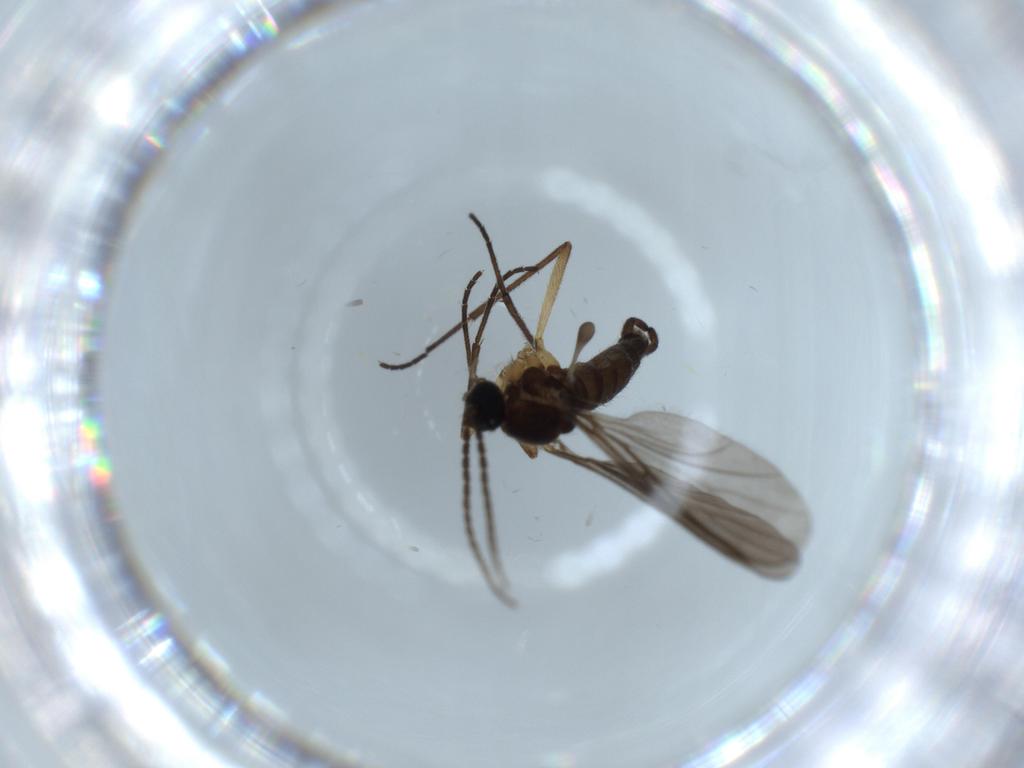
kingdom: Animalia
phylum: Arthropoda
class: Insecta
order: Diptera
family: Sciaridae
